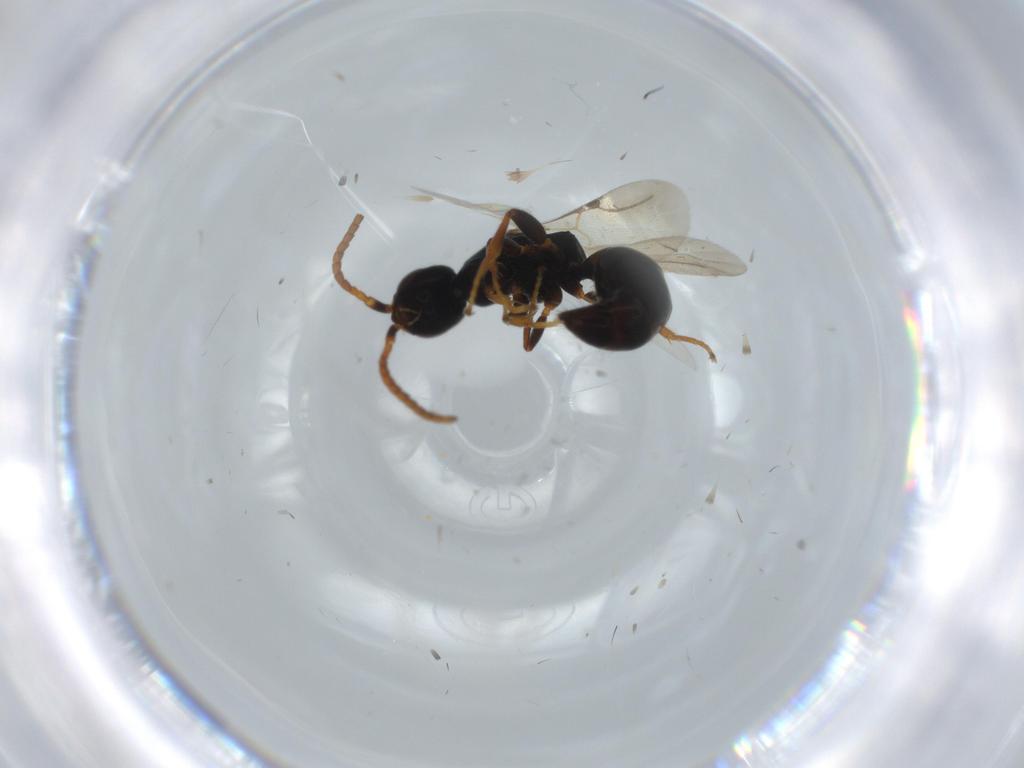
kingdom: Animalia
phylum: Arthropoda
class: Insecta
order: Hymenoptera
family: Bethylidae
